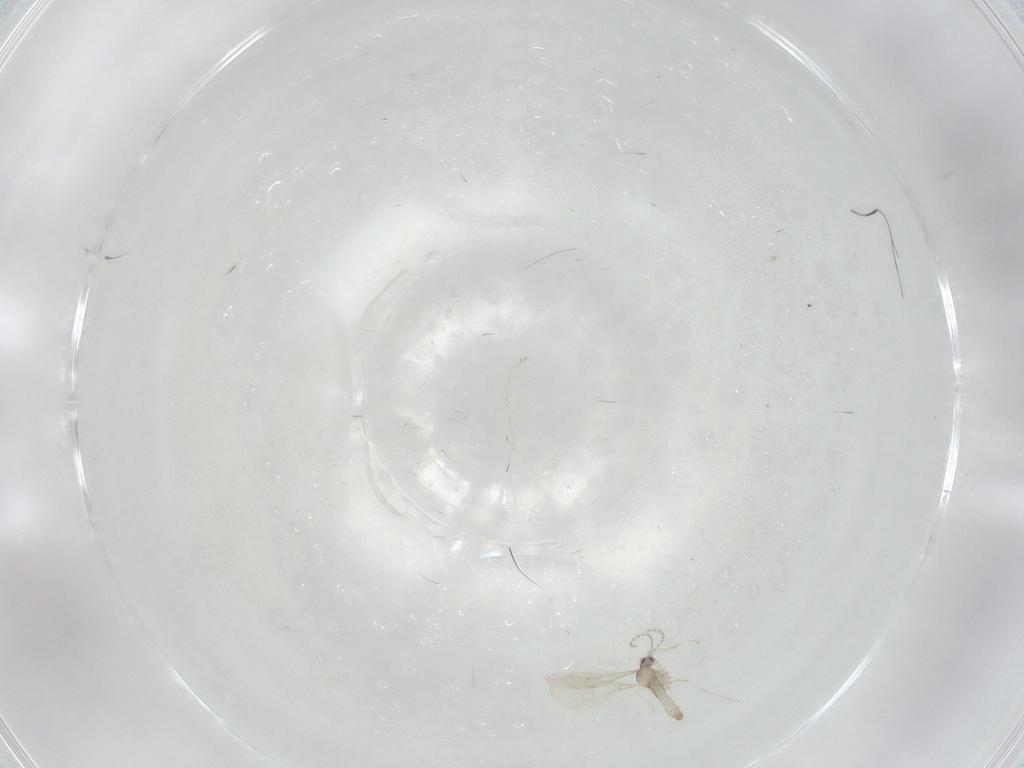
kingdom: Animalia
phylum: Arthropoda
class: Insecta
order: Diptera
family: Cecidomyiidae
